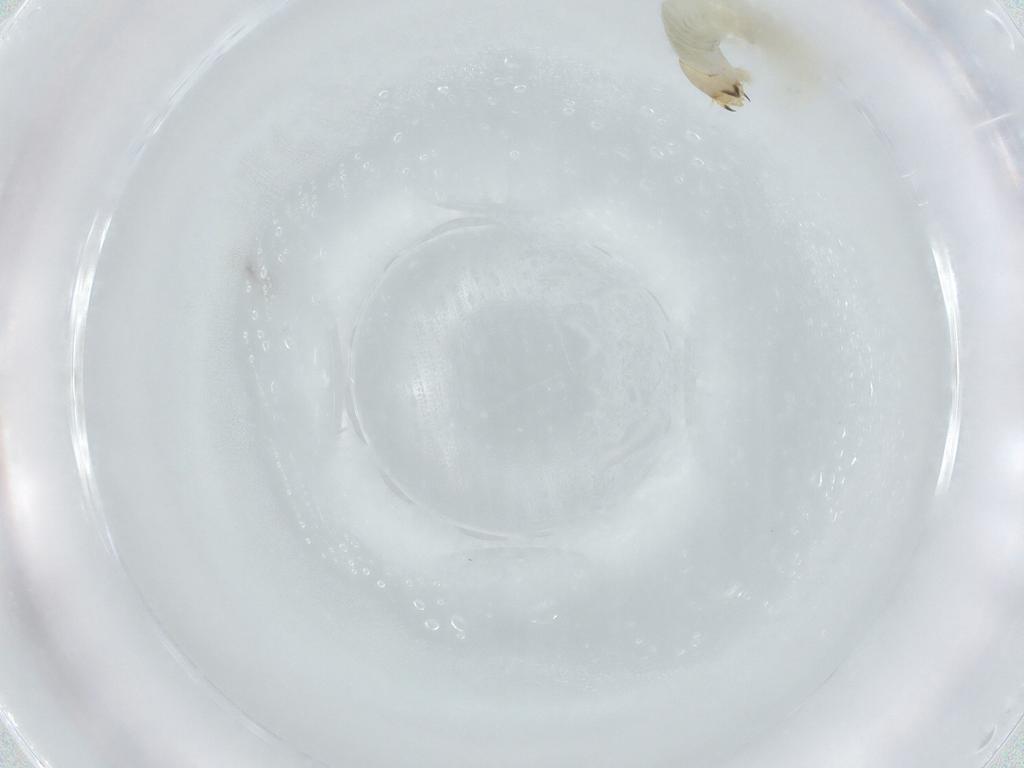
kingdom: Animalia
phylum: Arthropoda
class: Insecta
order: Diptera
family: Chironomidae
